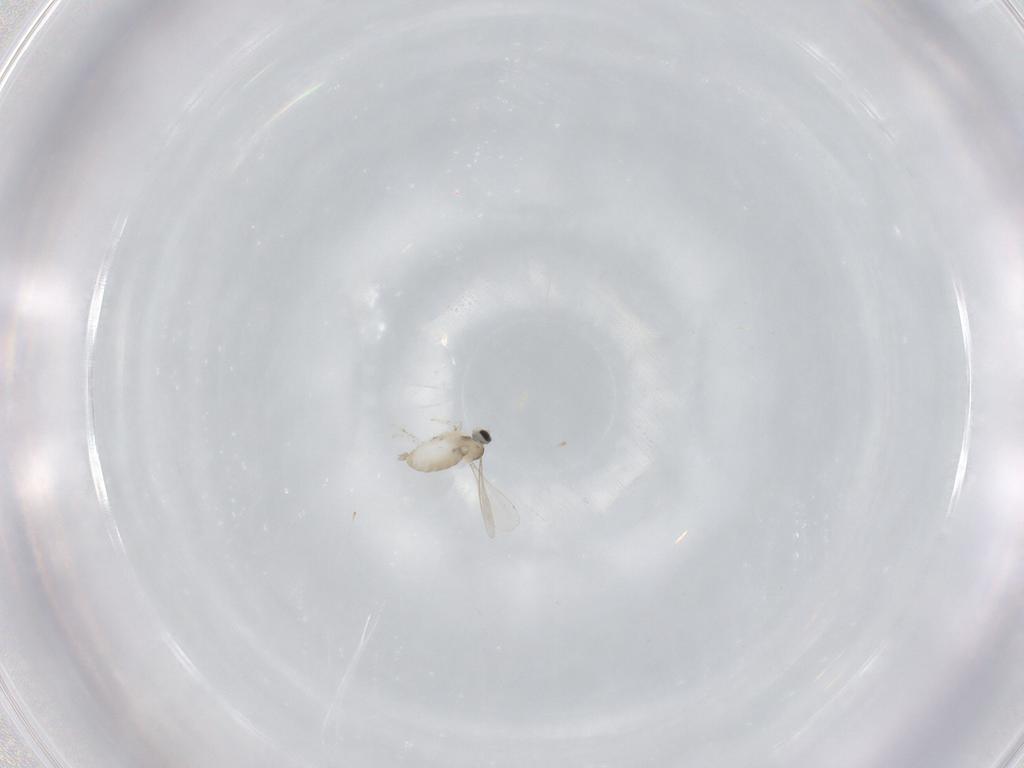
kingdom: Animalia
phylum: Arthropoda
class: Insecta
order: Diptera
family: Cecidomyiidae
